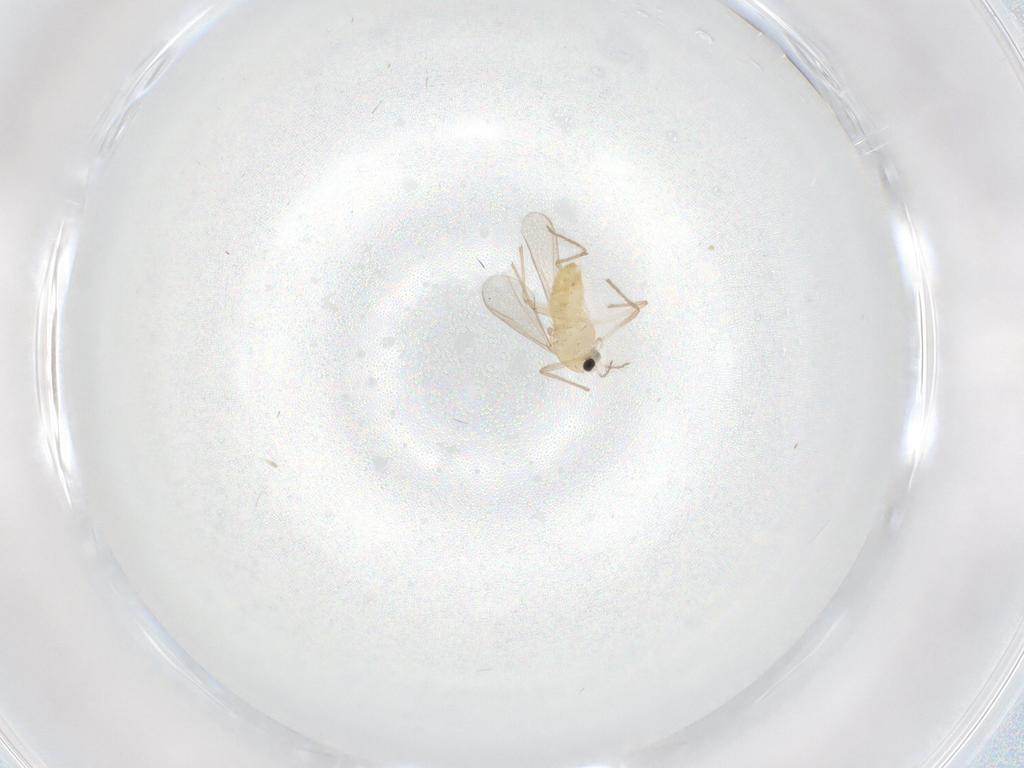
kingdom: Animalia
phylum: Arthropoda
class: Insecta
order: Diptera
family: Chironomidae
